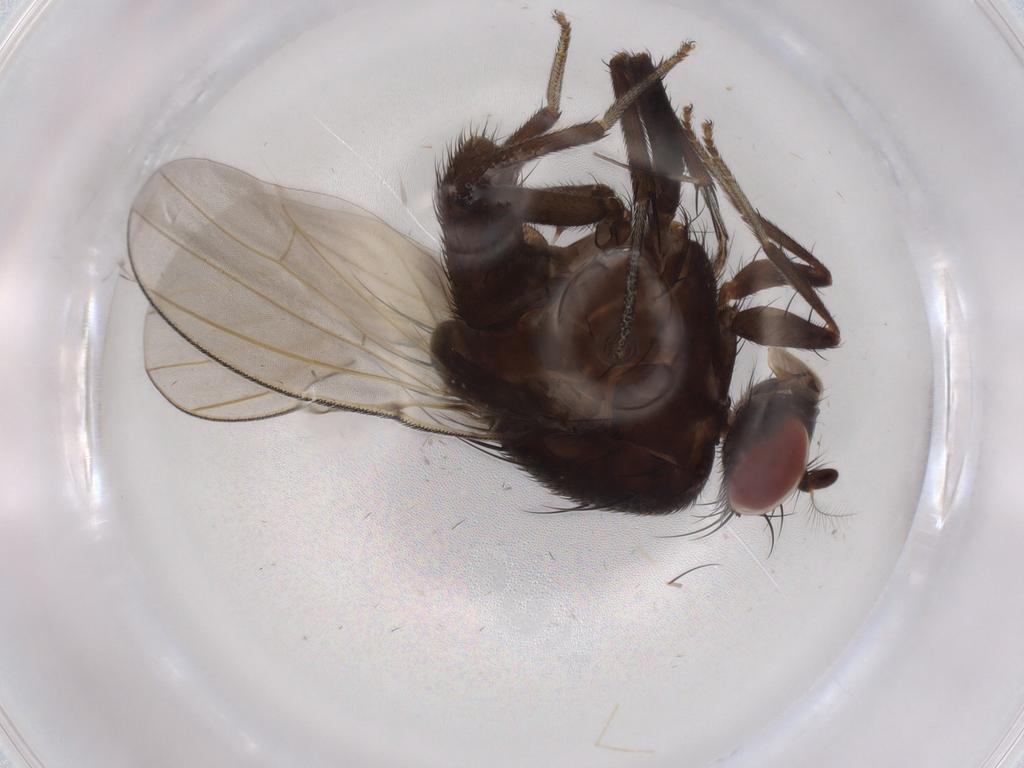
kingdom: Animalia
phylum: Arthropoda
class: Insecta
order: Diptera
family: Lauxaniidae
